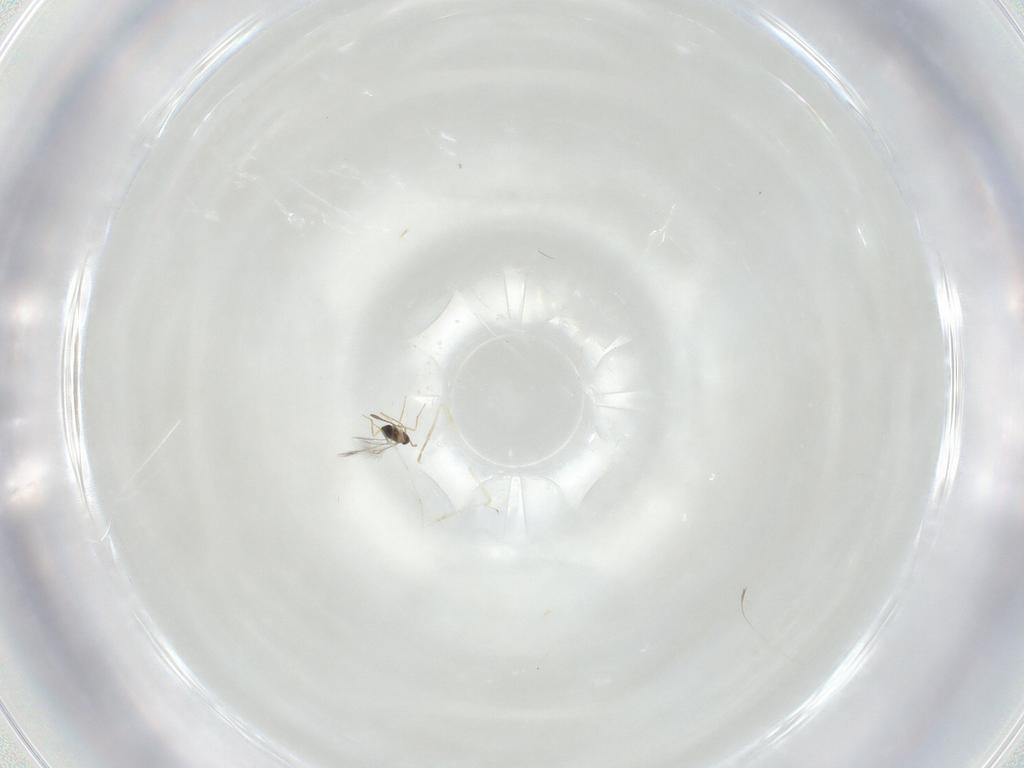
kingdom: Animalia
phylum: Arthropoda
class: Insecta
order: Diptera
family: Cecidomyiidae
